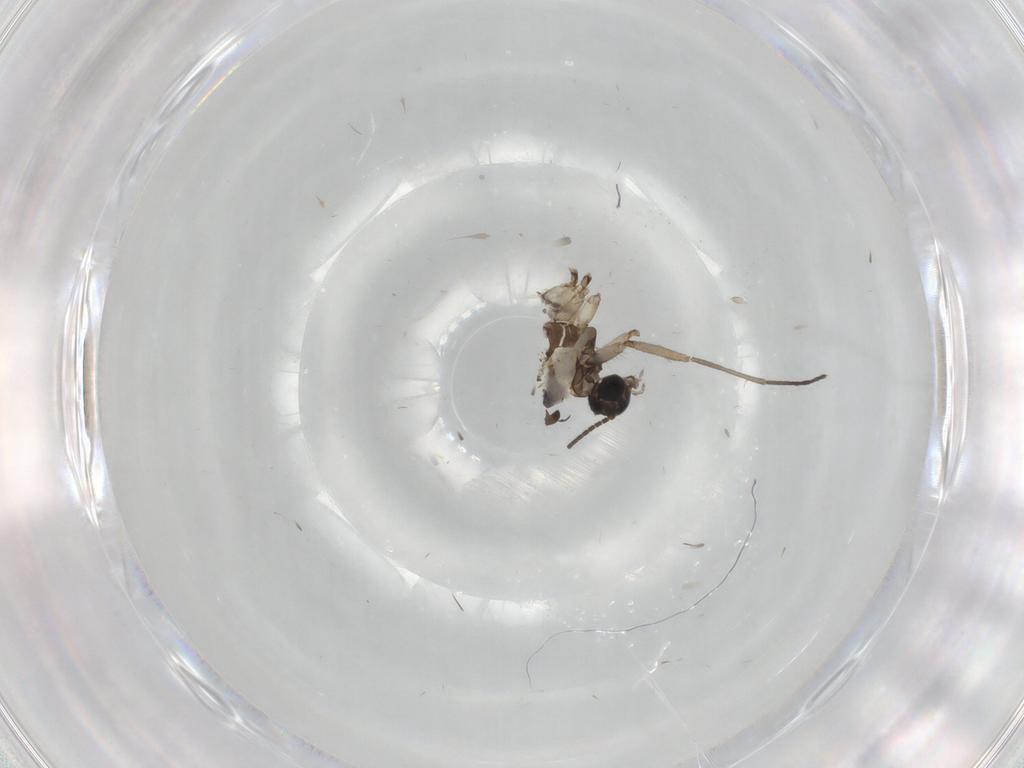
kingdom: Animalia
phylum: Arthropoda
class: Insecta
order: Diptera
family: Sciaridae
